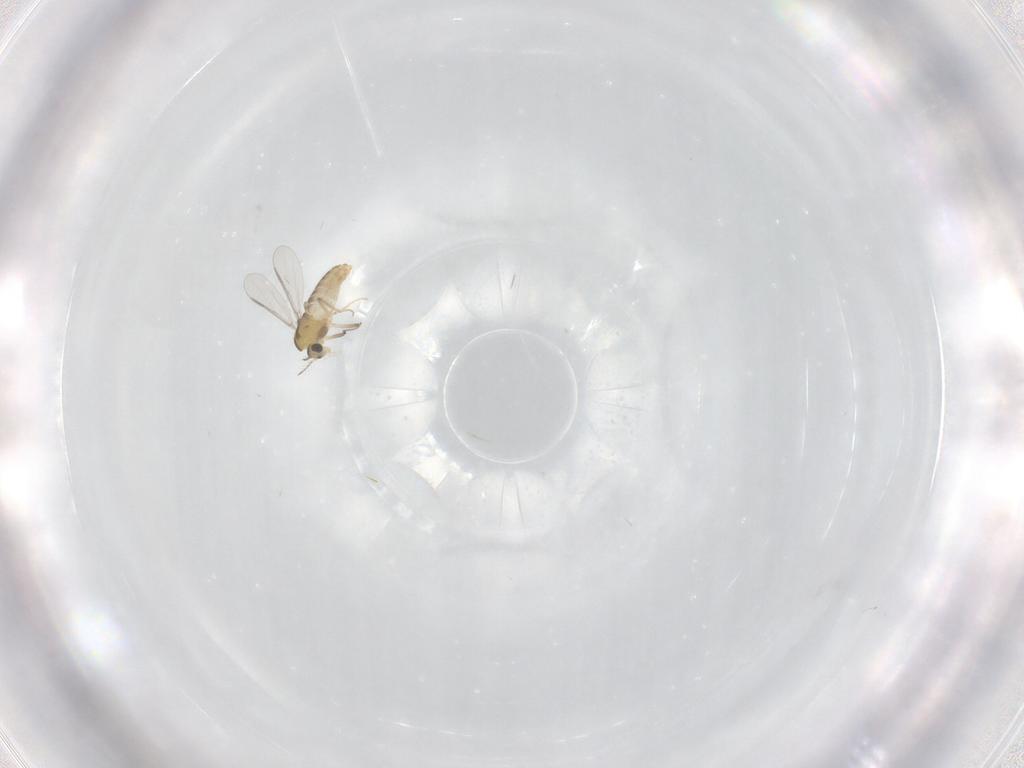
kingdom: Animalia
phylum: Arthropoda
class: Insecta
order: Diptera
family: Chironomidae
